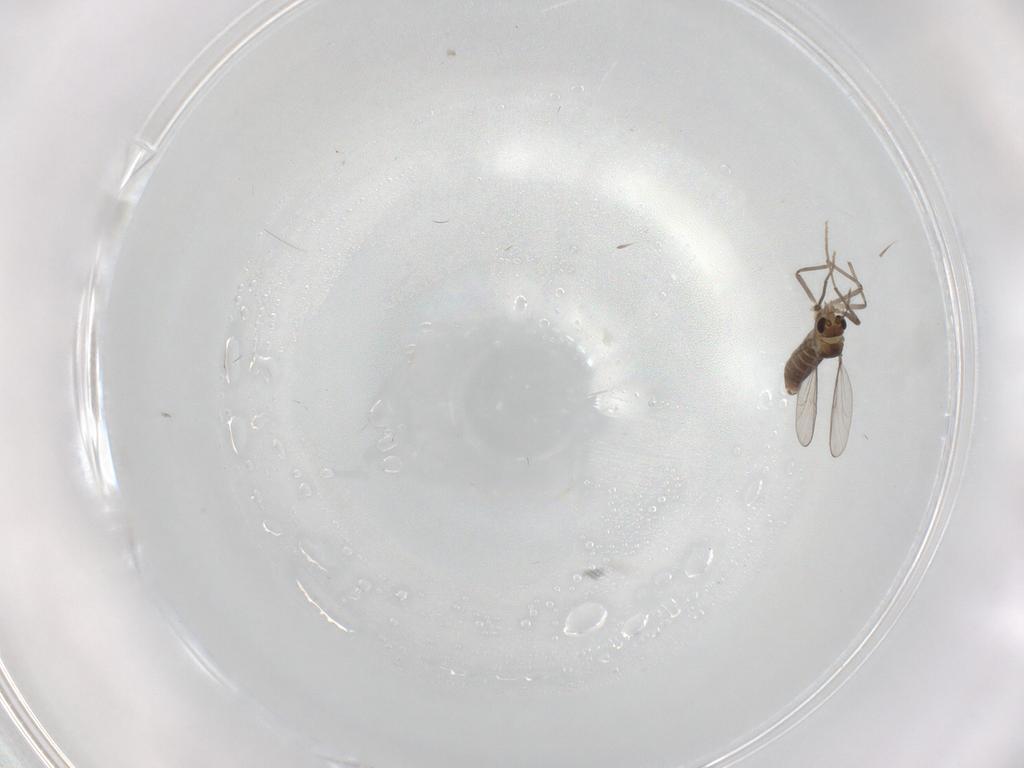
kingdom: Animalia
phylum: Arthropoda
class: Insecta
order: Diptera
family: Chironomidae
